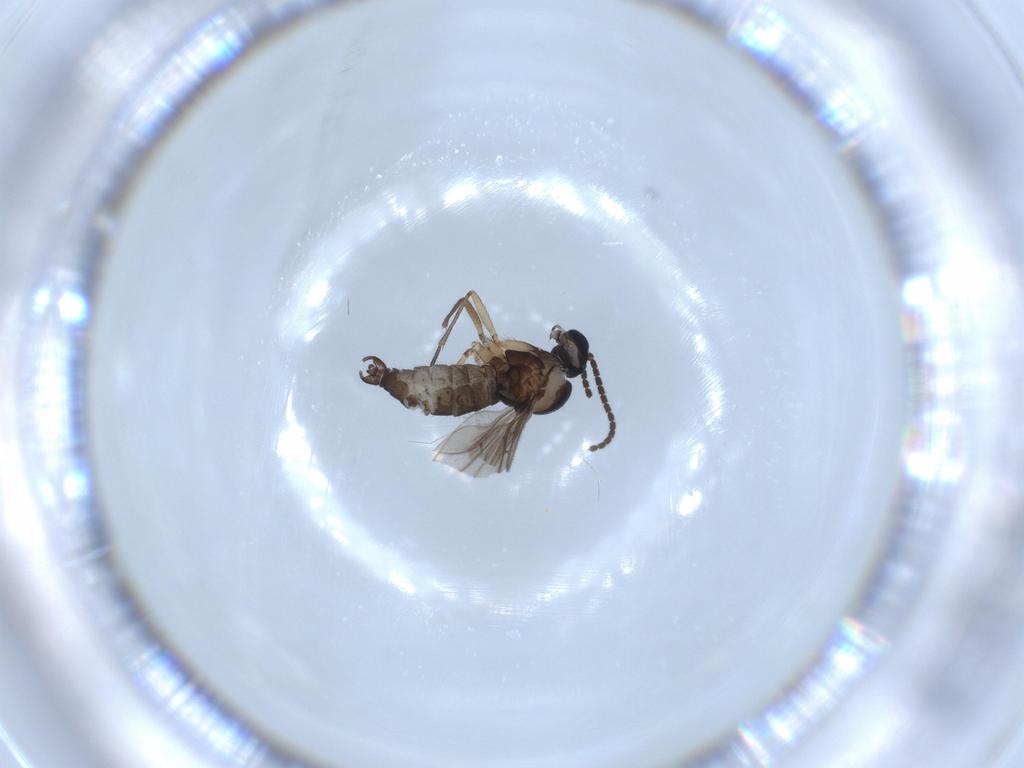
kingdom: Animalia
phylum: Arthropoda
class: Insecta
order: Diptera
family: Sciaridae
